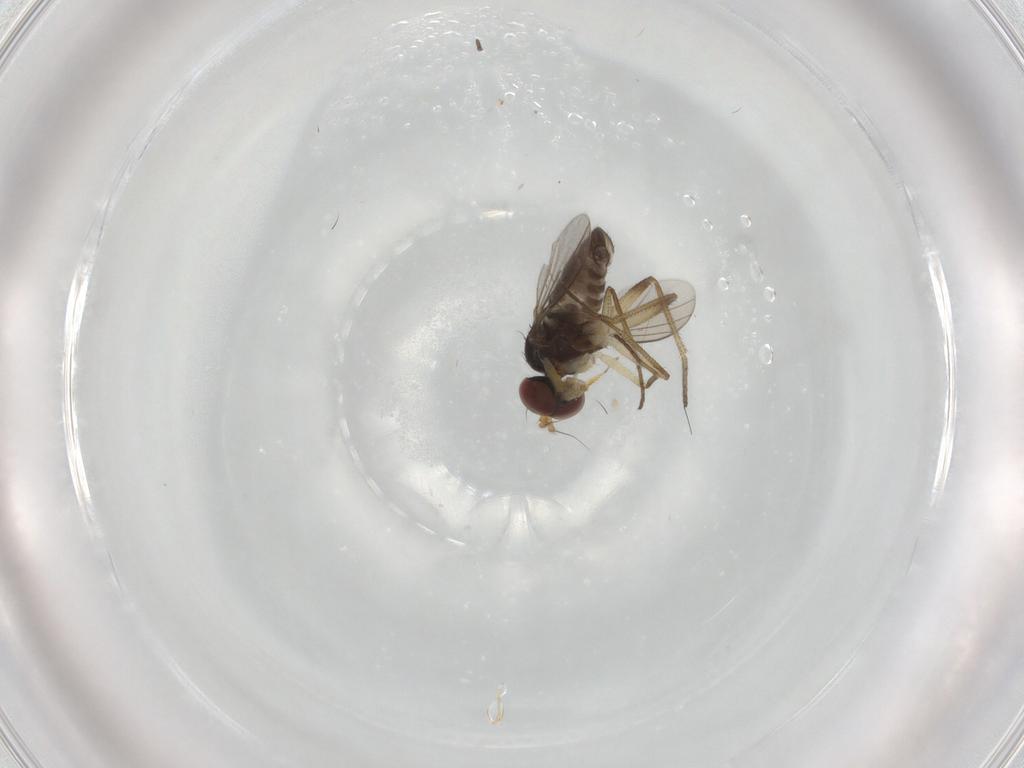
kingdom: Animalia
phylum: Arthropoda
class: Insecta
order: Diptera
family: Dolichopodidae
